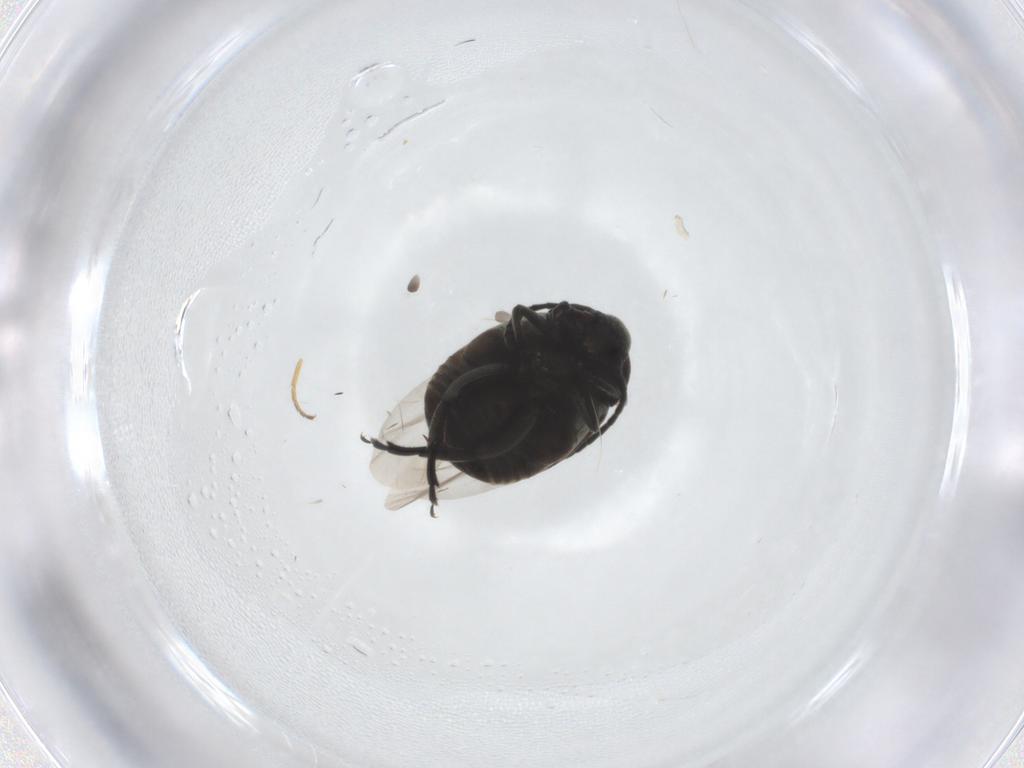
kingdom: Animalia
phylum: Arthropoda
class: Insecta
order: Coleoptera
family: Chrysomelidae
